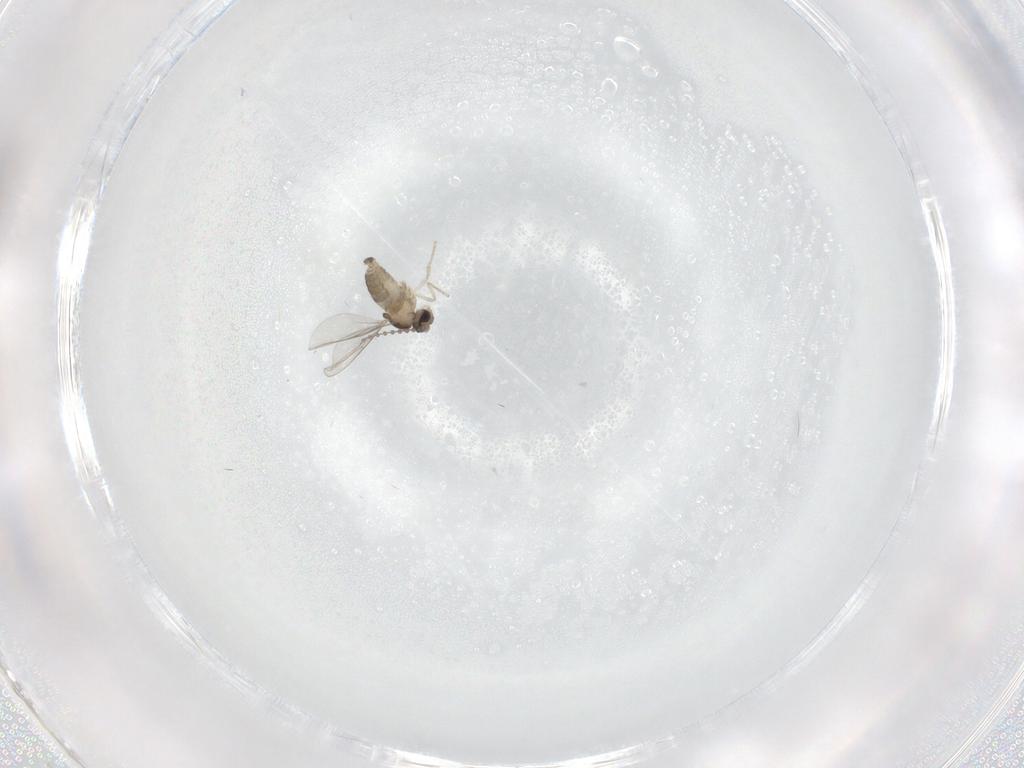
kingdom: Animalia
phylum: Arthropoda
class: Insecta
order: Diptera
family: Cecidomyiidae
